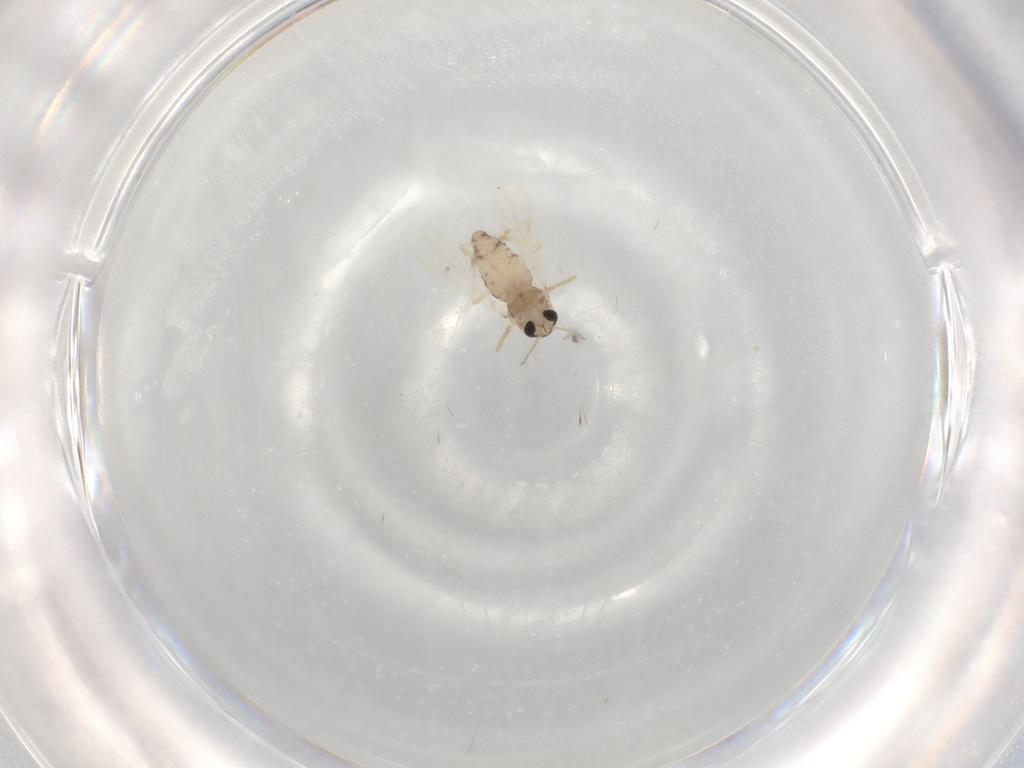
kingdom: Animalia
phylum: Arthropoda
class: Insecta
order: Diptera
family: Chironomidae
